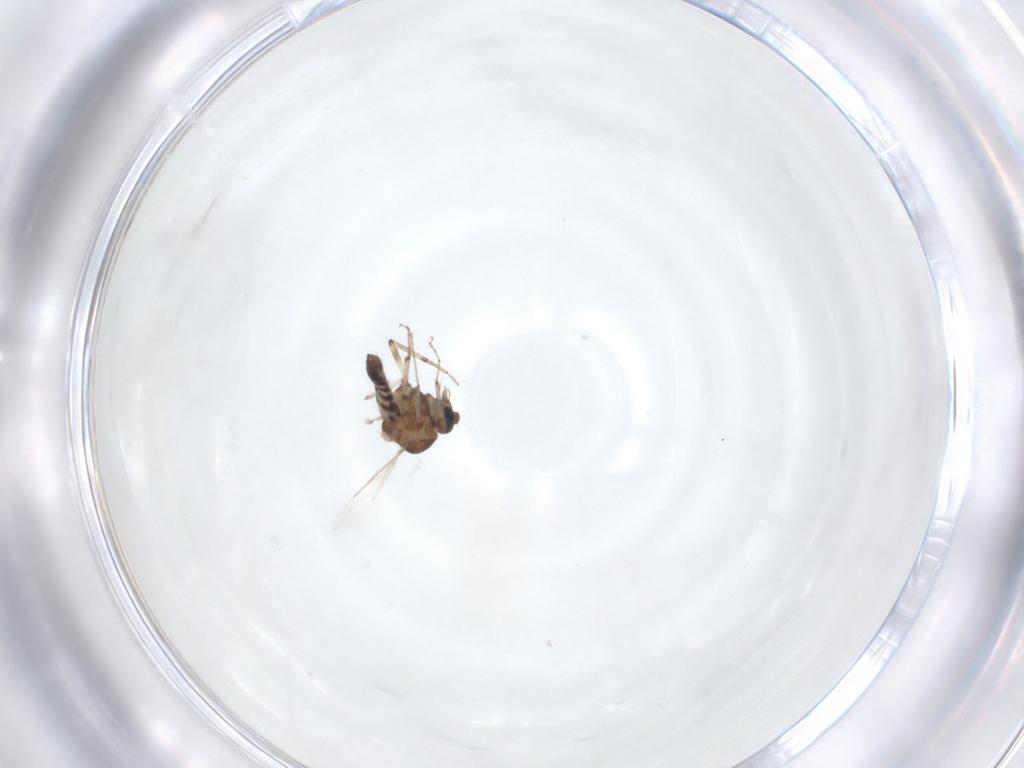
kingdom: Animalia
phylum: Arthropoda
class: Insecta
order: Diptera
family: Ceratopogonidae
